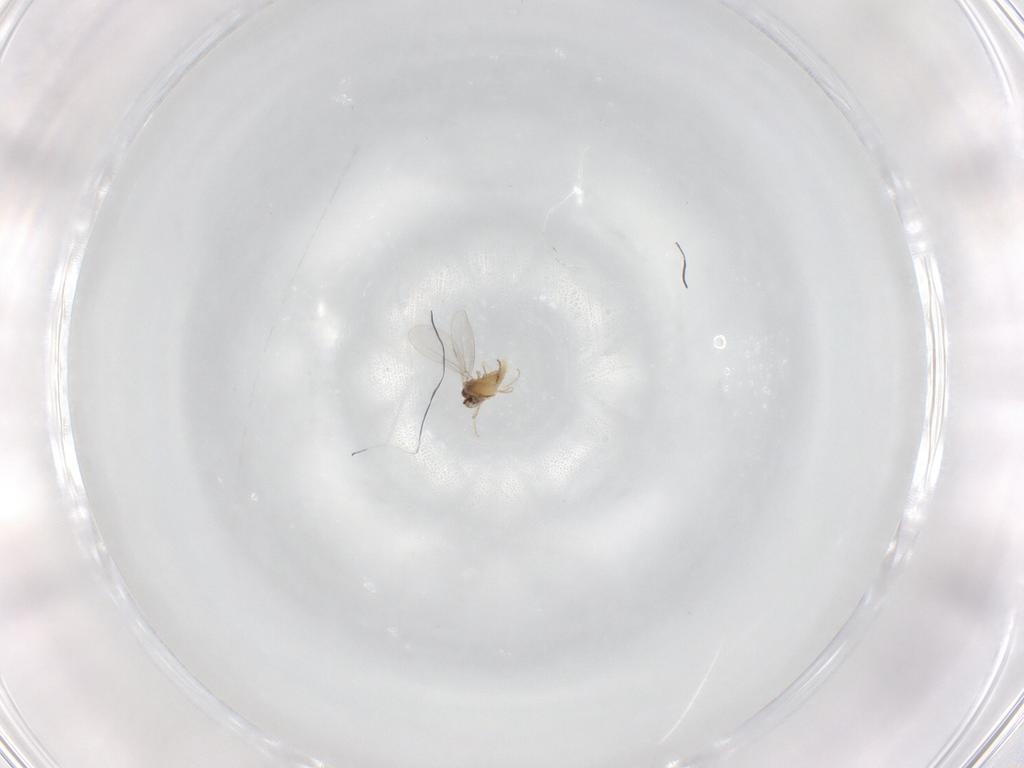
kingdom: Animalia
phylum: Arthropoda
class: Insecta
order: Diptera
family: Cecidomyiidae
